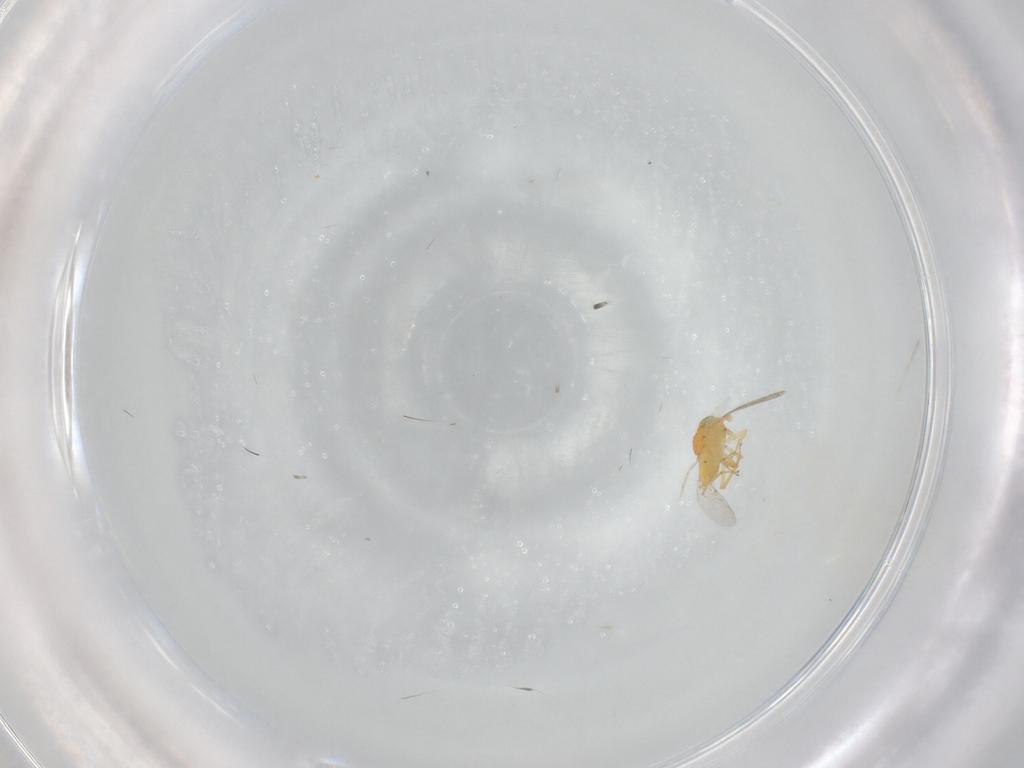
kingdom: Animalia
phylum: Arthropoda
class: Insecta
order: Hymenoptera
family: Encyrtidae
